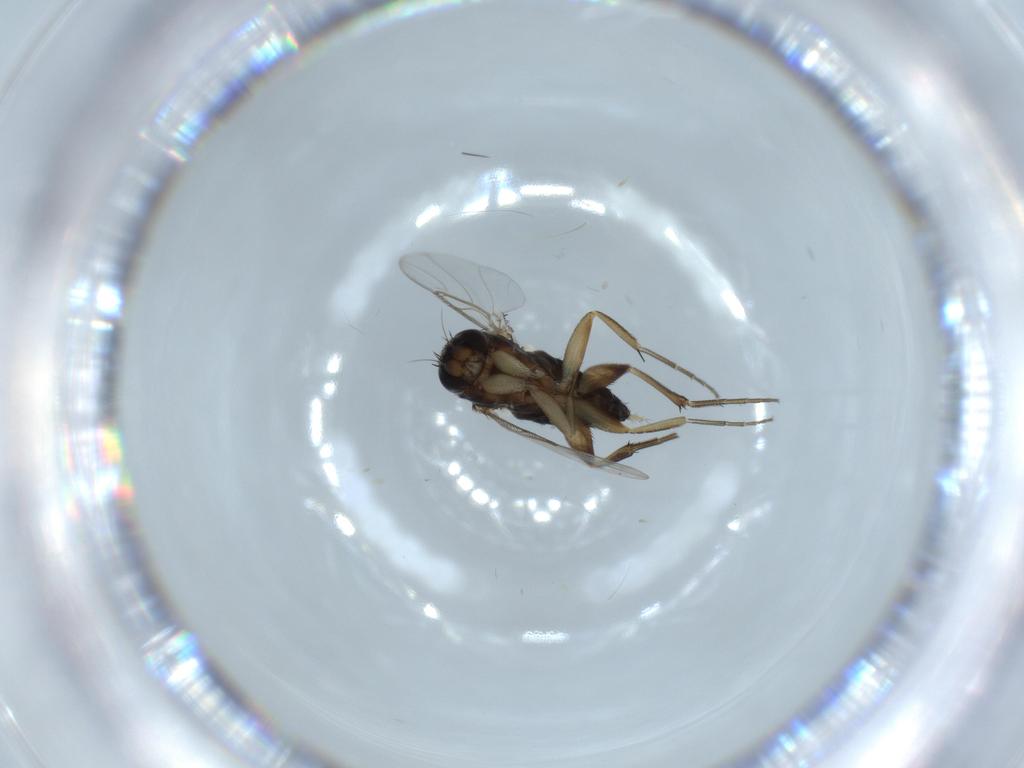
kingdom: Animalia
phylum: Arthropoda
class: Insecta
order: Diptera
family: Phoridae
